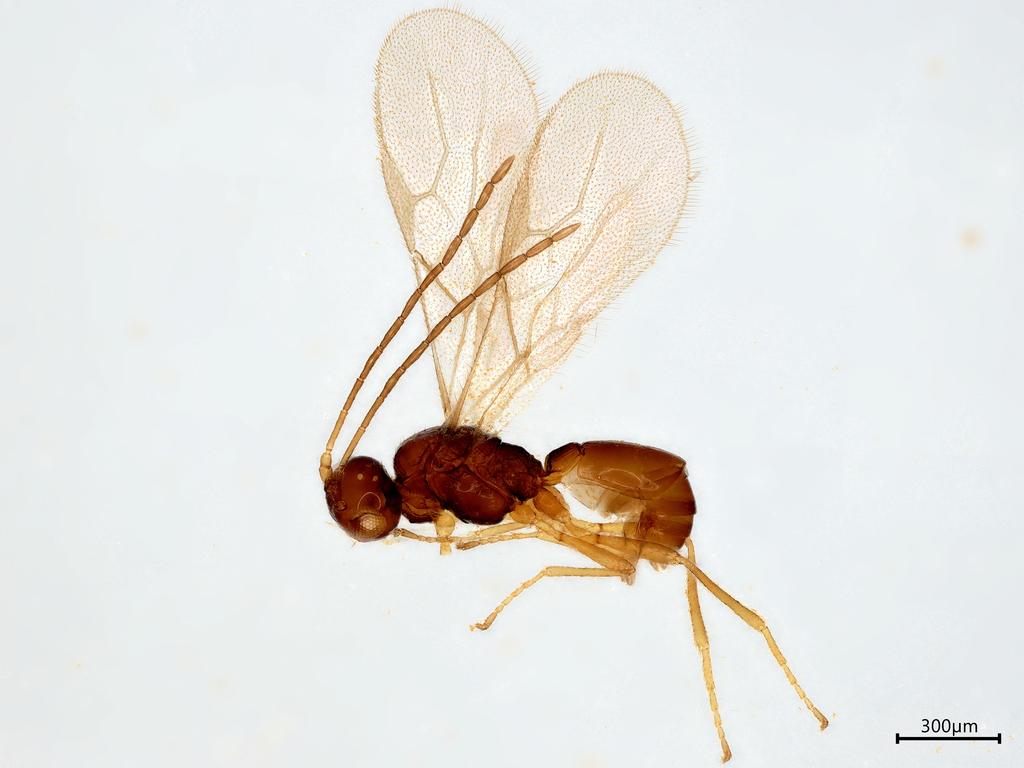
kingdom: Animalia
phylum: Arthropoda
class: Insecta
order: Hymenoptera
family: Braconidae
